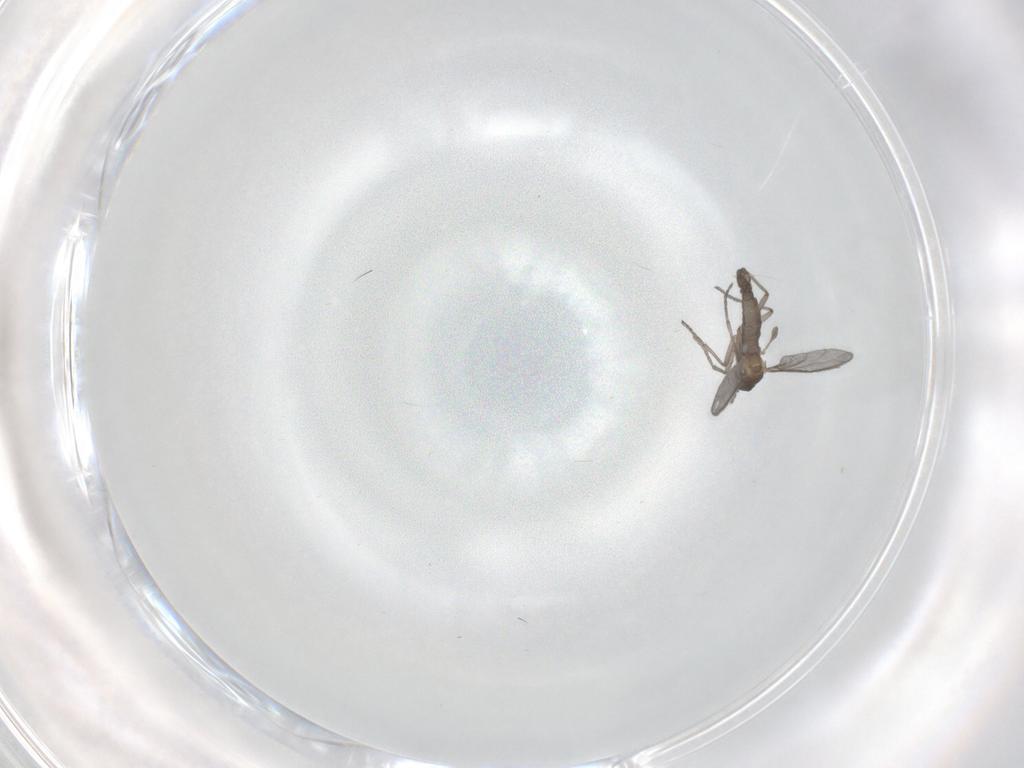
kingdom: Animalia
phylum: Arthropoda
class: Insecta
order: Diptera
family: Sciaridae
